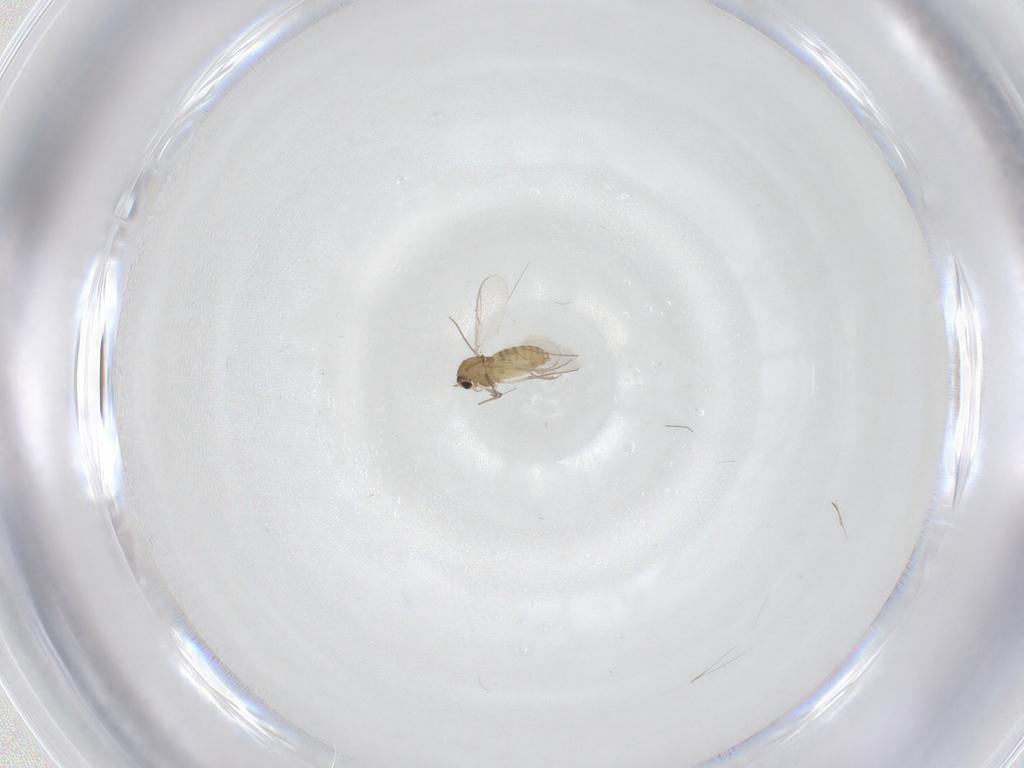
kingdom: Animalia
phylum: Arthropoda
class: Insecta
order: Diptera
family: Chironomidae
